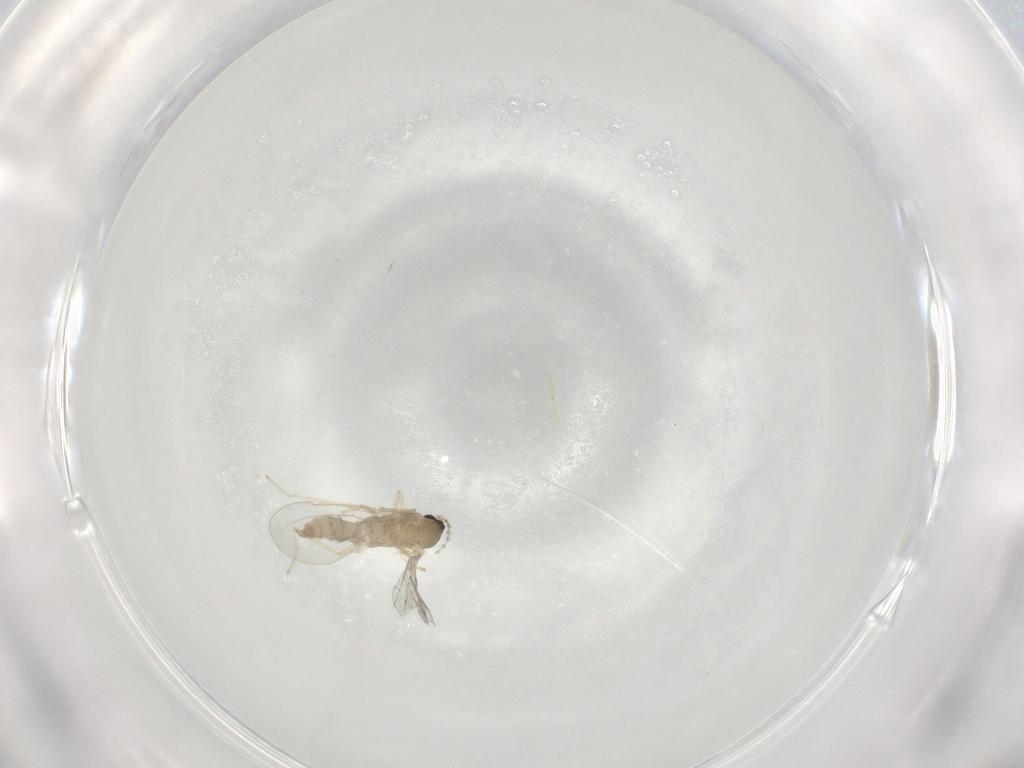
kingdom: Animalia
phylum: Arthropoda
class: Insecta
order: Diptera
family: Cecidomyiidae
